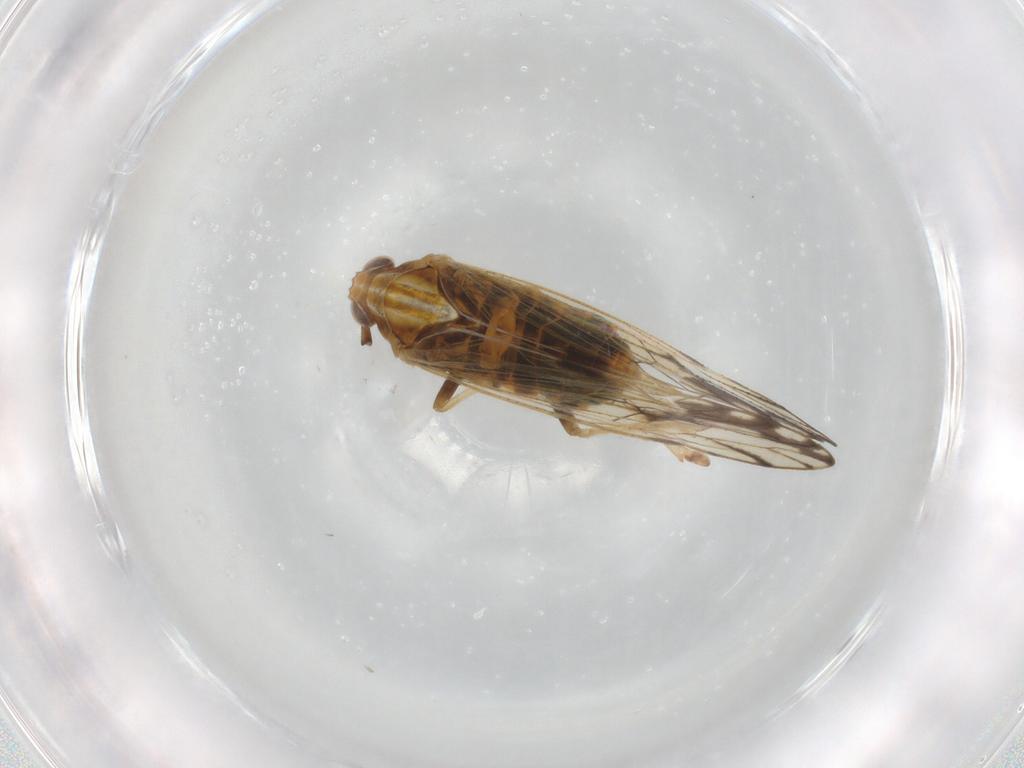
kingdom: Animalia
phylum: Arthropoda
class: Insecta
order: Hemiptera
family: Delphacidae
